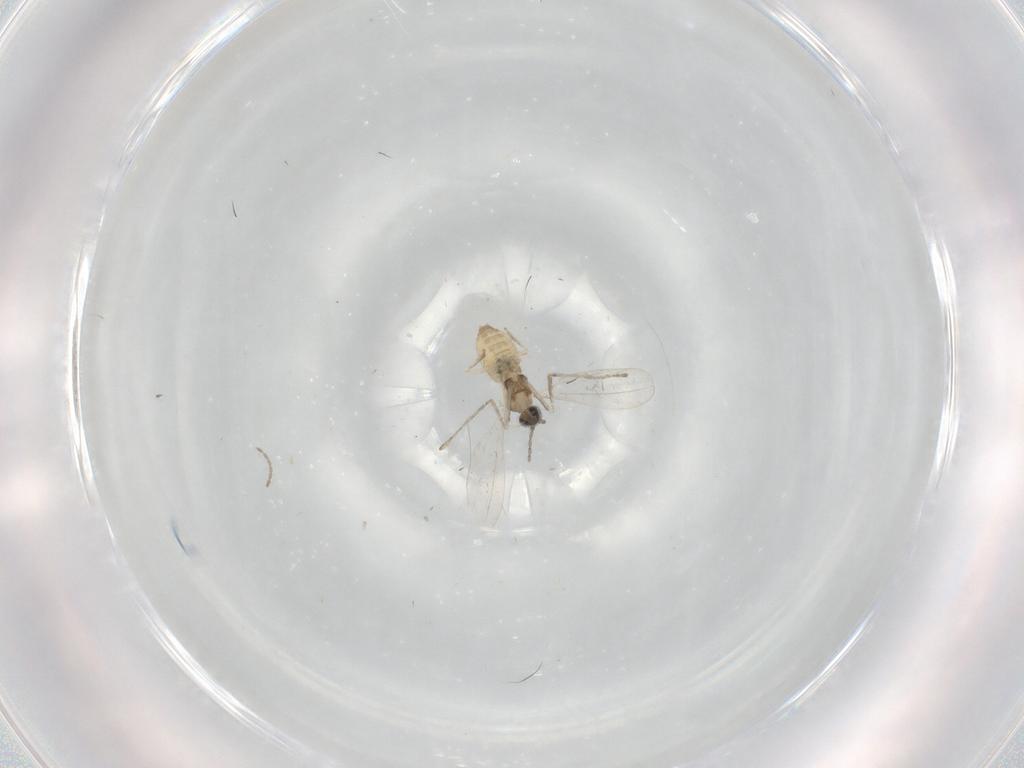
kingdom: Animalia
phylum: Arthropoda
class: Insecta
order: Diptera
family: Cecidomyiidae
